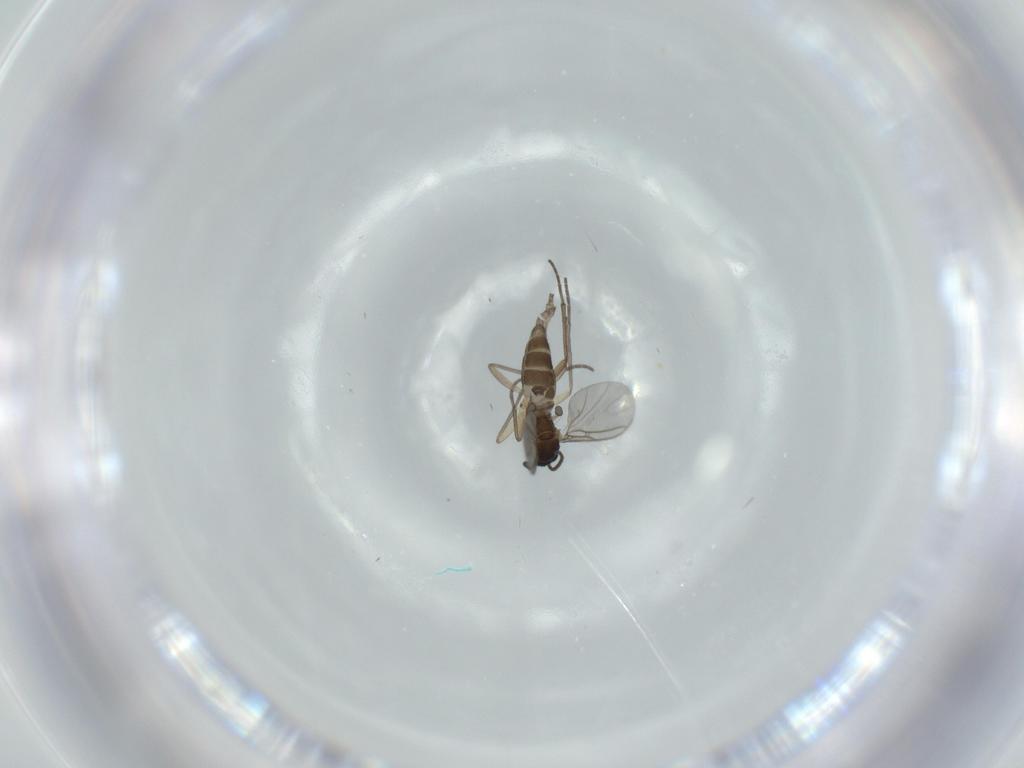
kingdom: Animalia
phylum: Arthropoda
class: Insecta
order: Diptera
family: Sciaridae
